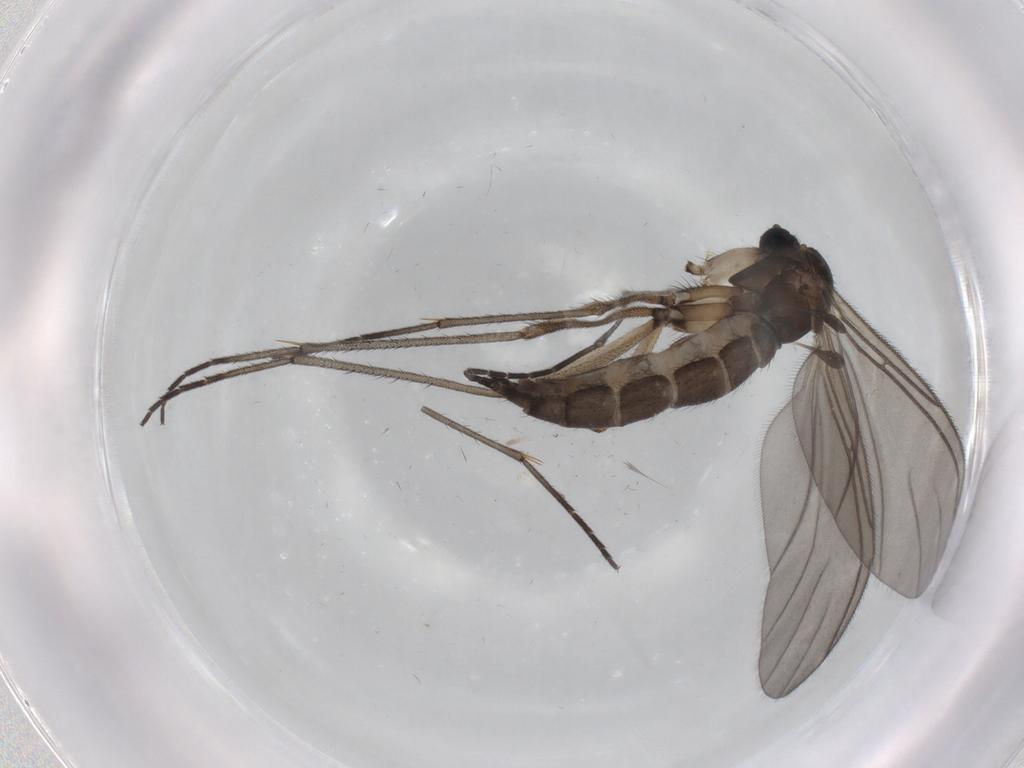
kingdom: Animalia
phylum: Arthropoda
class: Insecta
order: Diptera
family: Sciaridae
